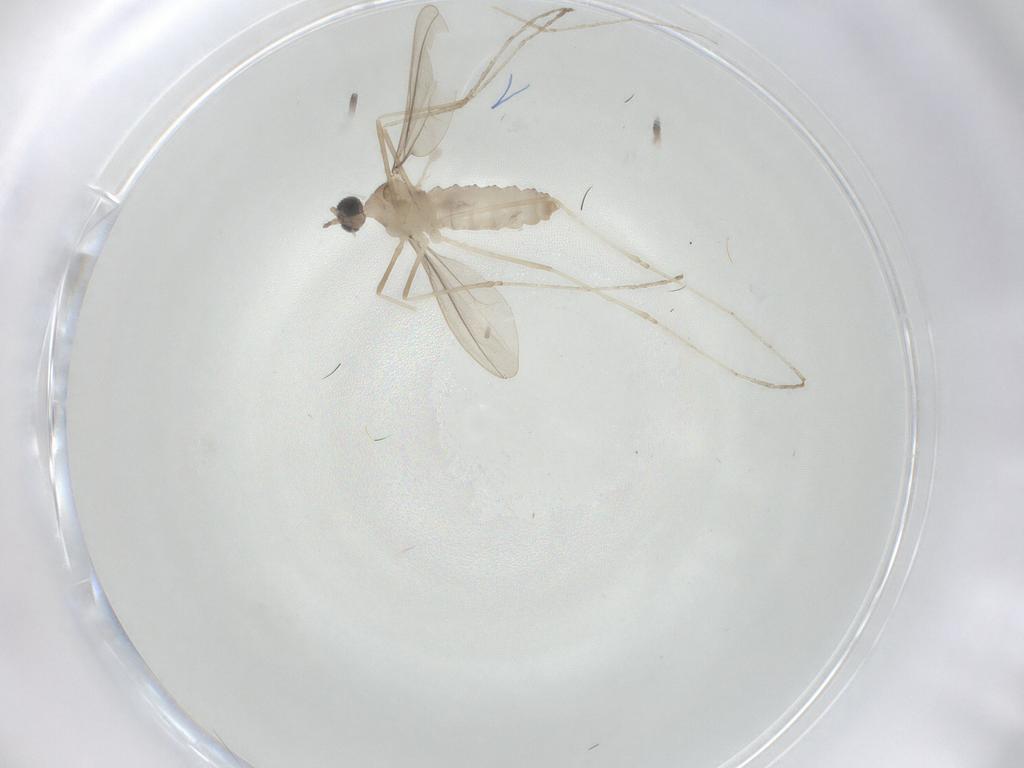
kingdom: Animalia
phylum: Arthropoda
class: Insecta
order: Diptera
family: Cecidomyiidae
